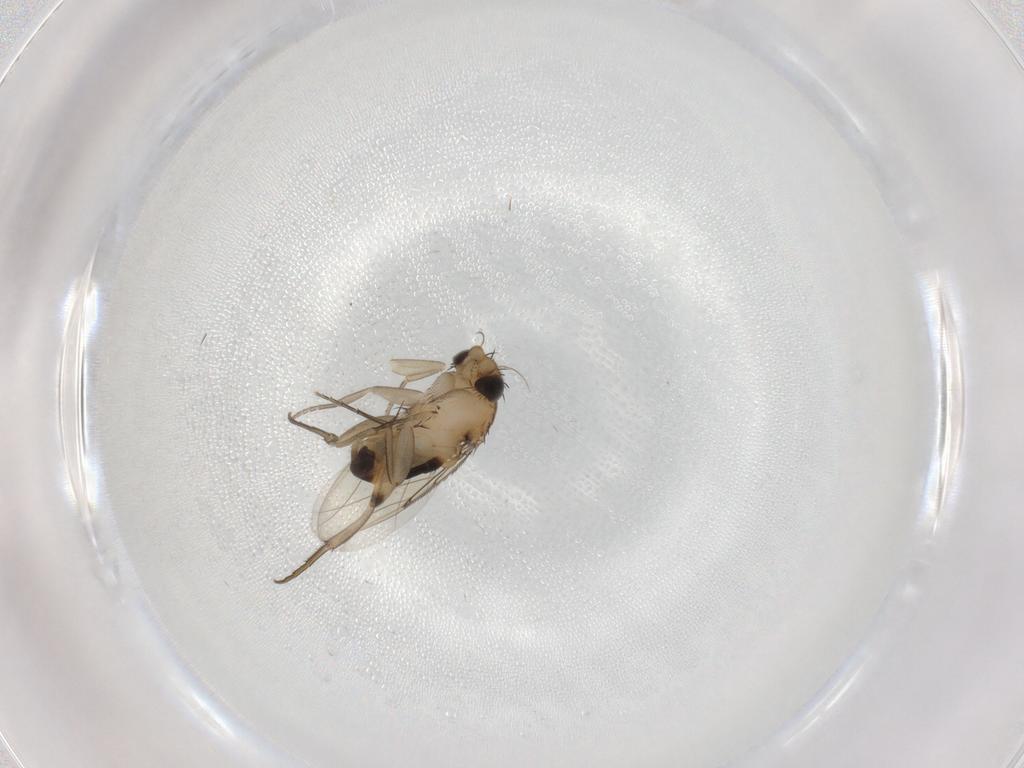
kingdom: Animalia
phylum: Arthropoda
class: Insecta
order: Diptera
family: Phoridae
